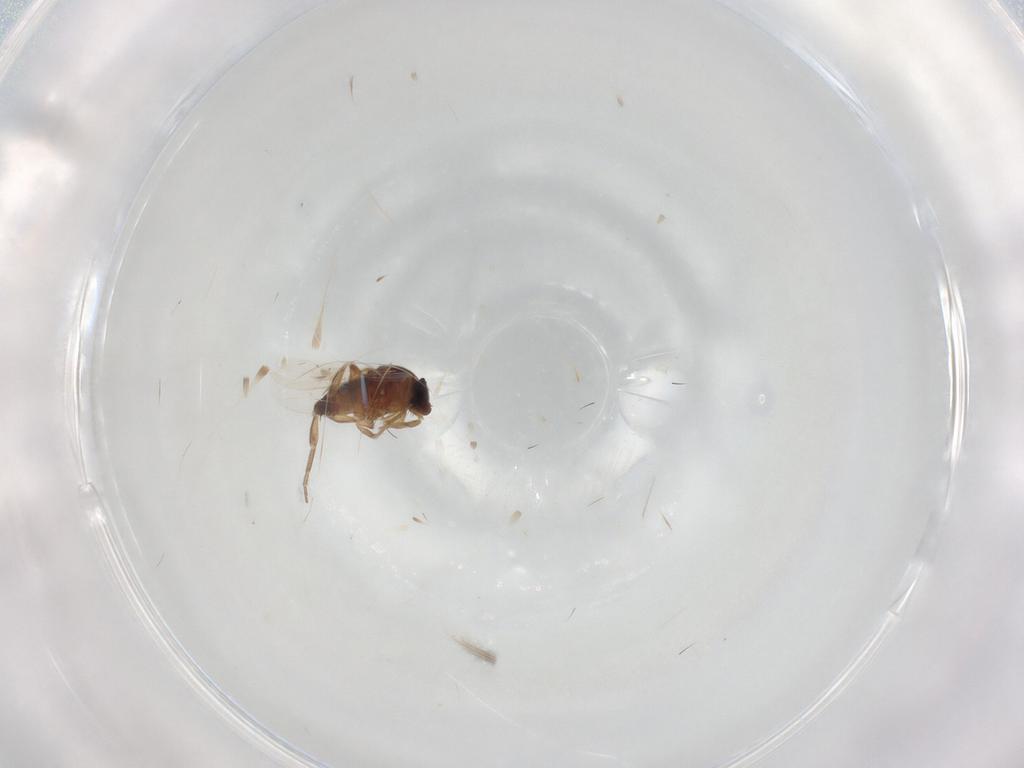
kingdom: Animalia
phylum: Arthropoda
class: Insecta
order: Diptera
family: Phoridae
